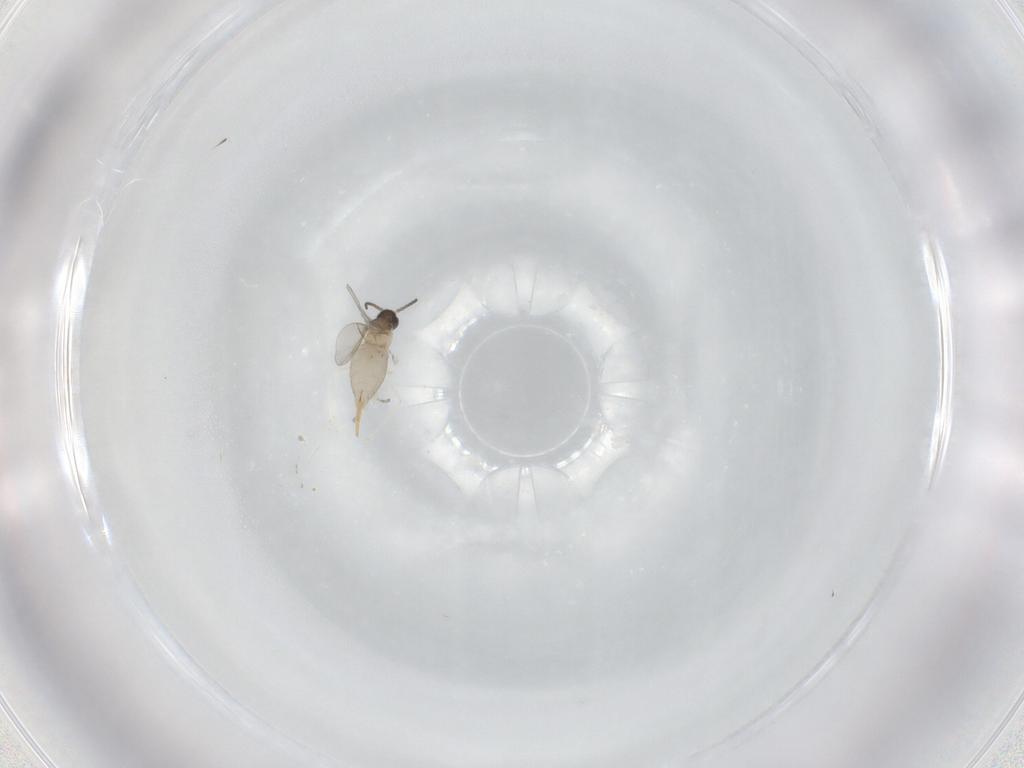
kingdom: Animalia
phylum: Arthropoda
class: Insecta
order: Diptera
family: Cecidomyiidae
